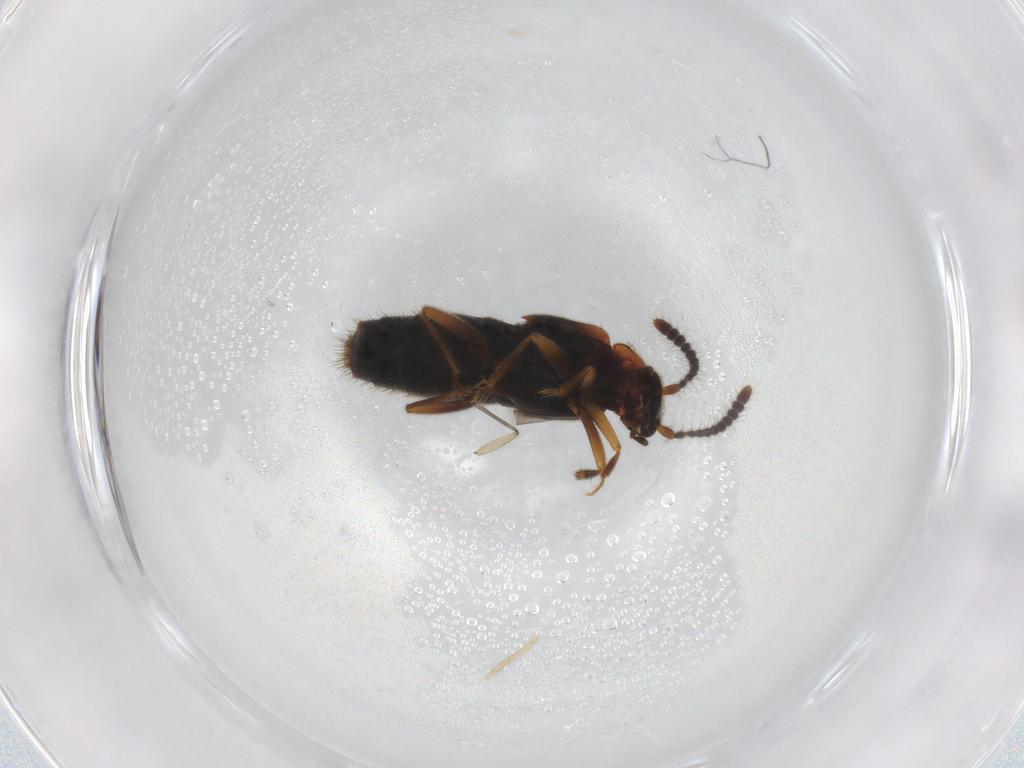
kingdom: Animalia
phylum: Arthropoda
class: Insecta
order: Coleoptera
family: Staphylinidae
